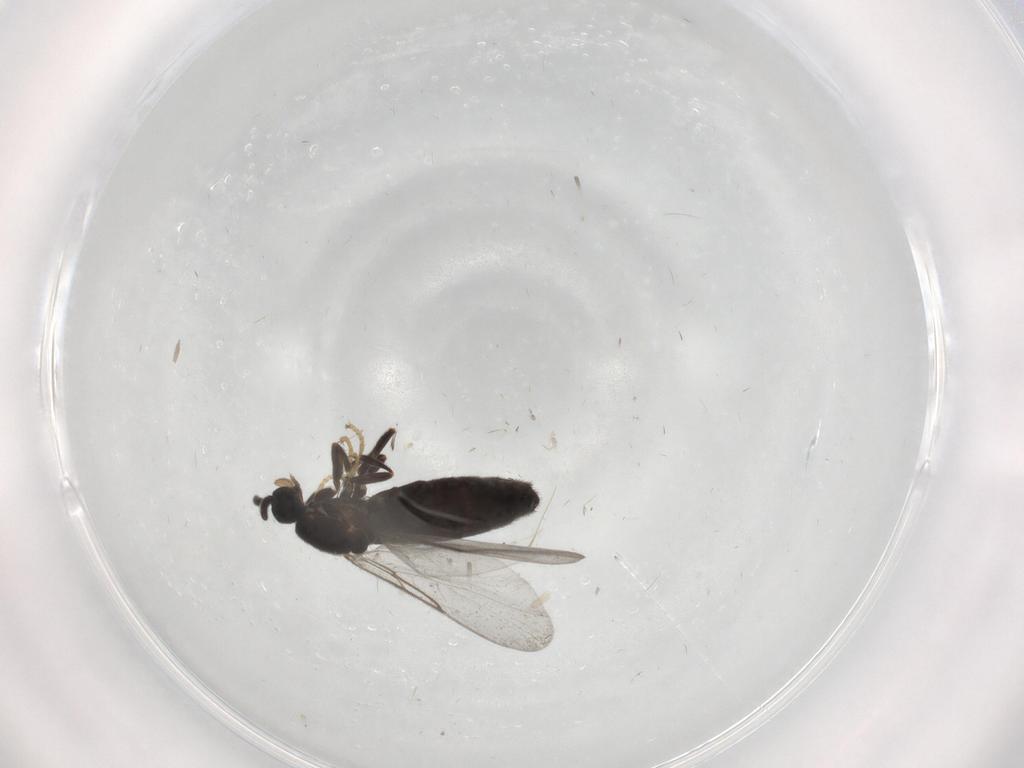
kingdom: Animalia
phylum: Arthropoda
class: Insecta
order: Diptera
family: Scatopsidae
